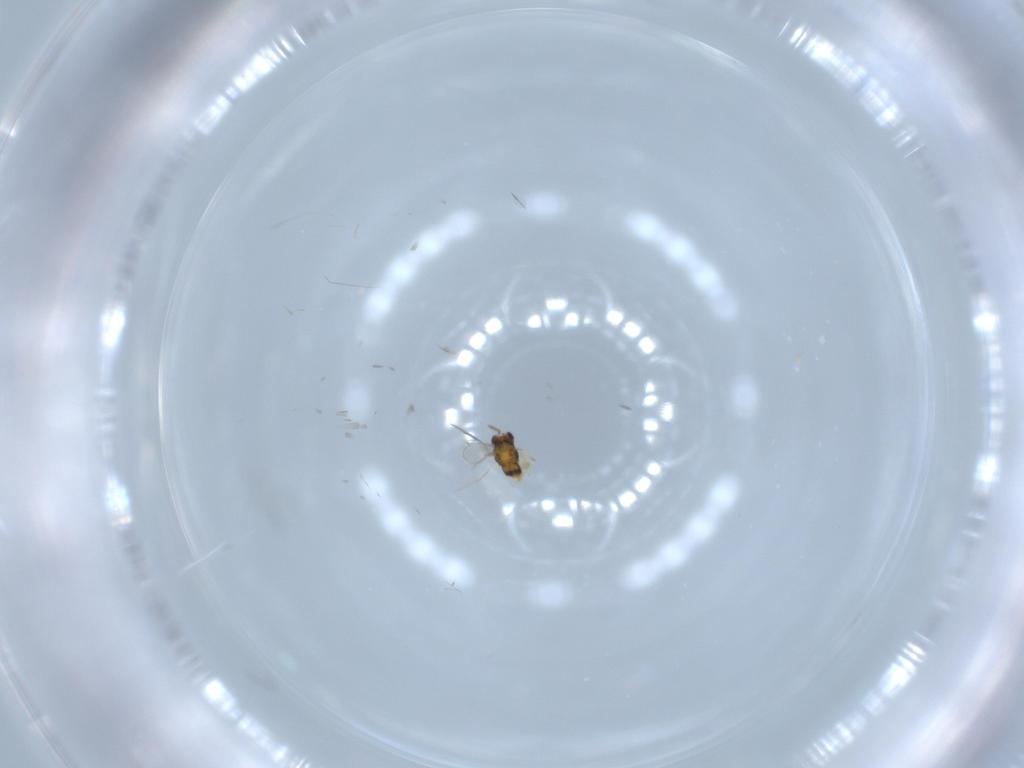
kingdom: Animalia
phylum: Arthropoda
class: Insecta
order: Hymenoptera
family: Aphelinidae
